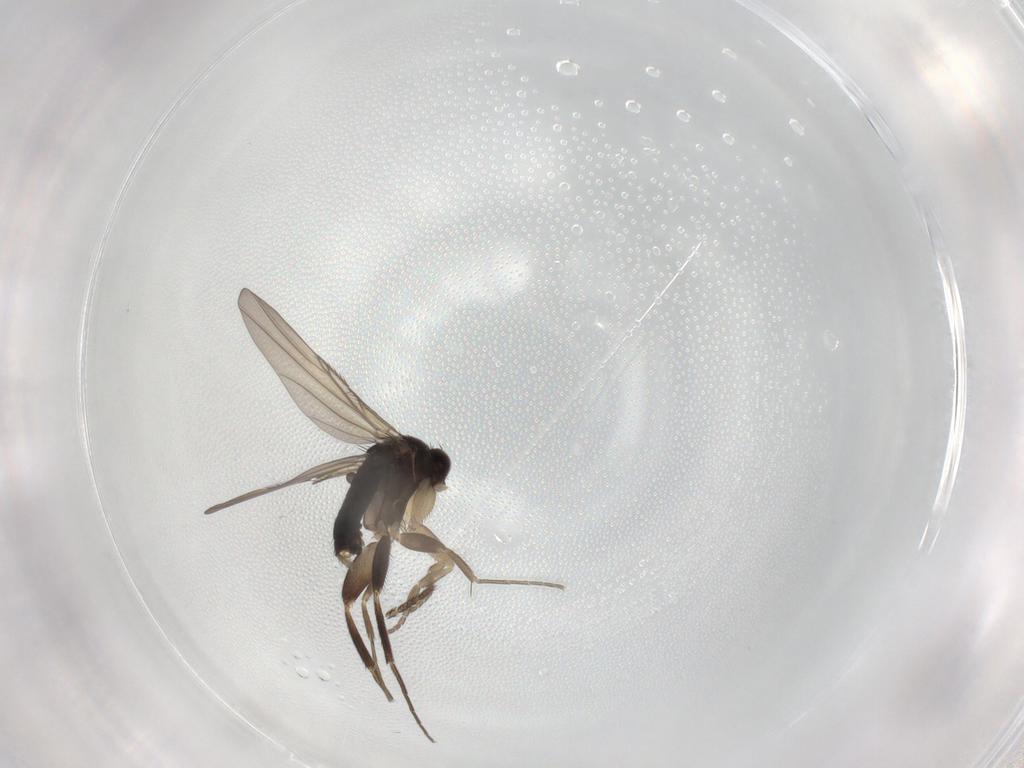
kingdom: Animalia
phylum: Arthropoda
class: Insecta
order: Diptera
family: Phoridae
